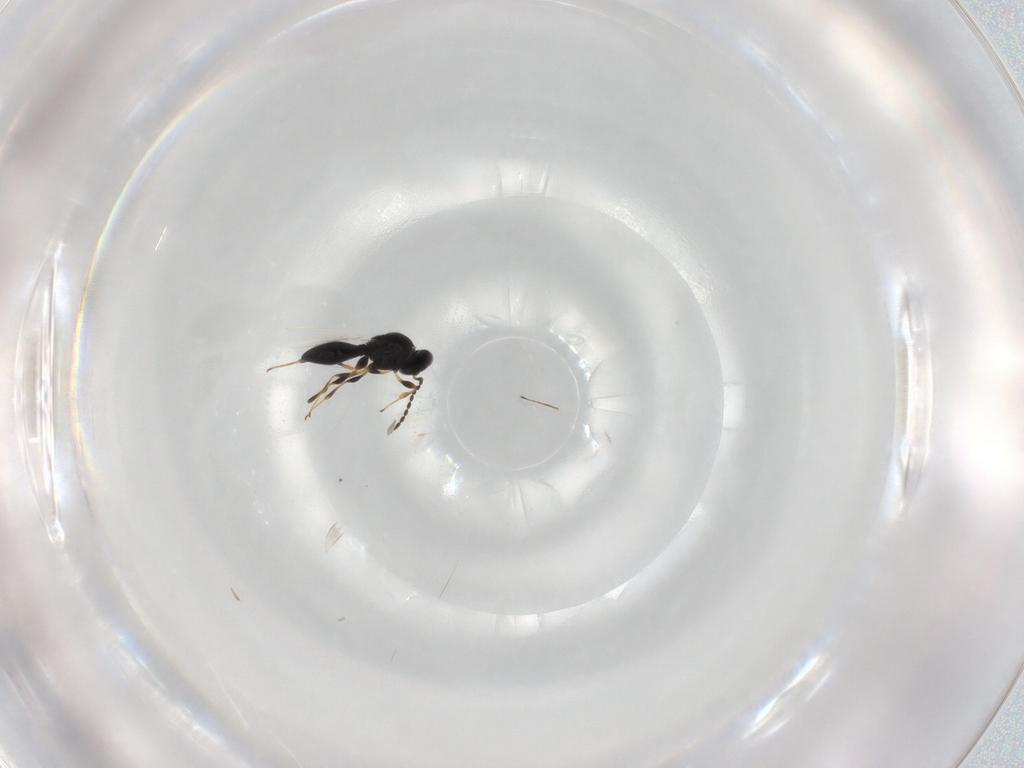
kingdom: Animalia
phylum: Arthropoda
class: Insecta
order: Hymenoptera
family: Platygastridae
